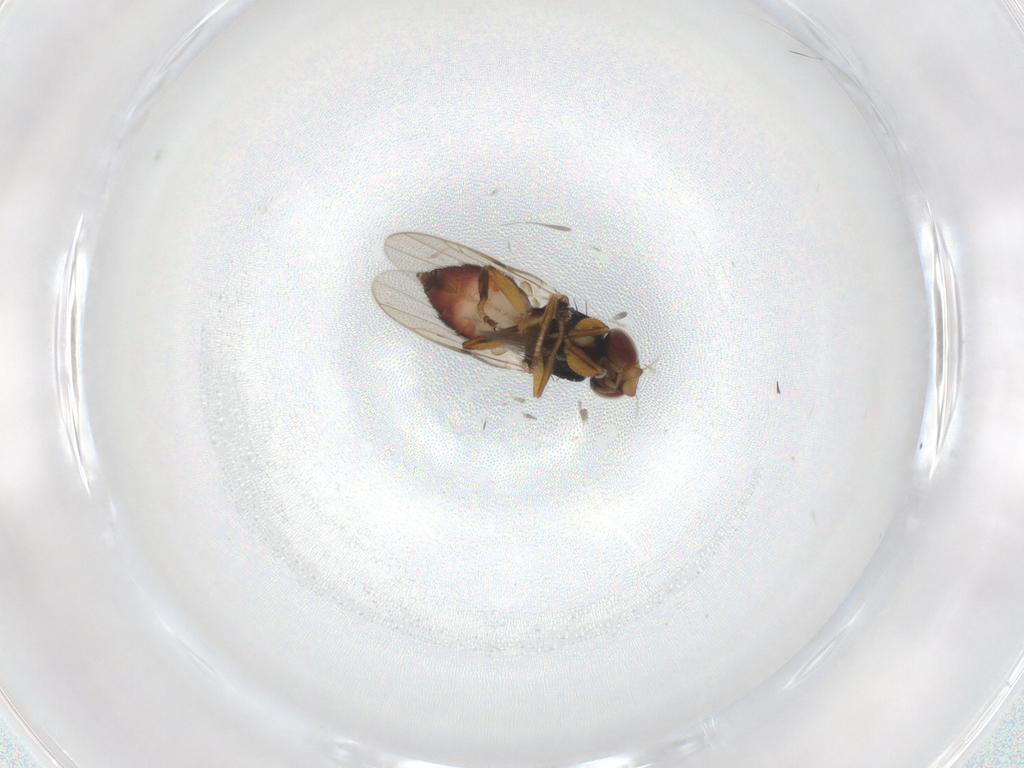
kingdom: Animalia
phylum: Arthropoda
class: Insecta
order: Diptera
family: Chloropidae
